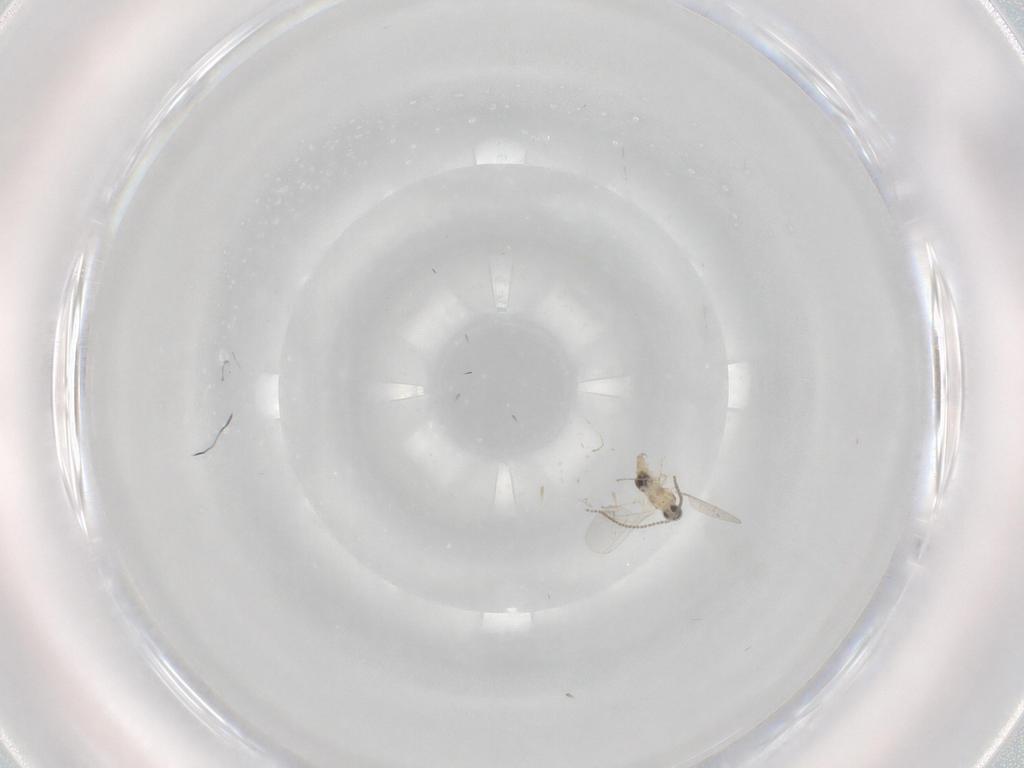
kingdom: Animalia
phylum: Arthropoda
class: Insecta
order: Diptera
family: Cecidomyiidae
